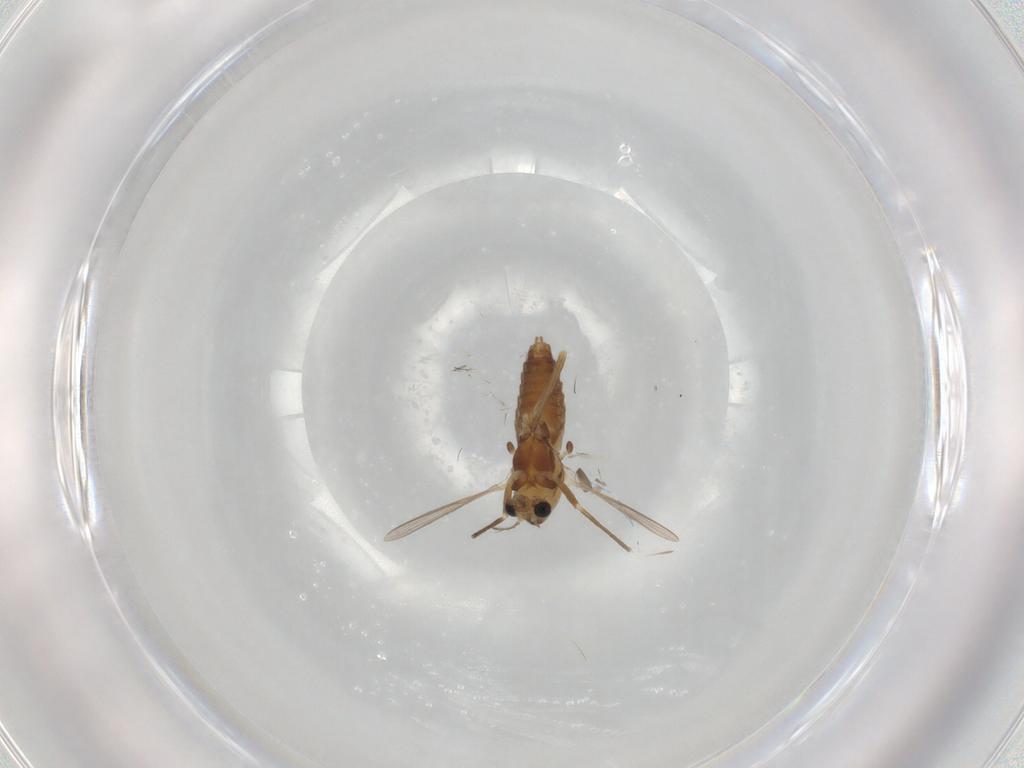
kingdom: Animalia
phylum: Arthropoda
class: Insecta
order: Diptera
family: Chironomidae
